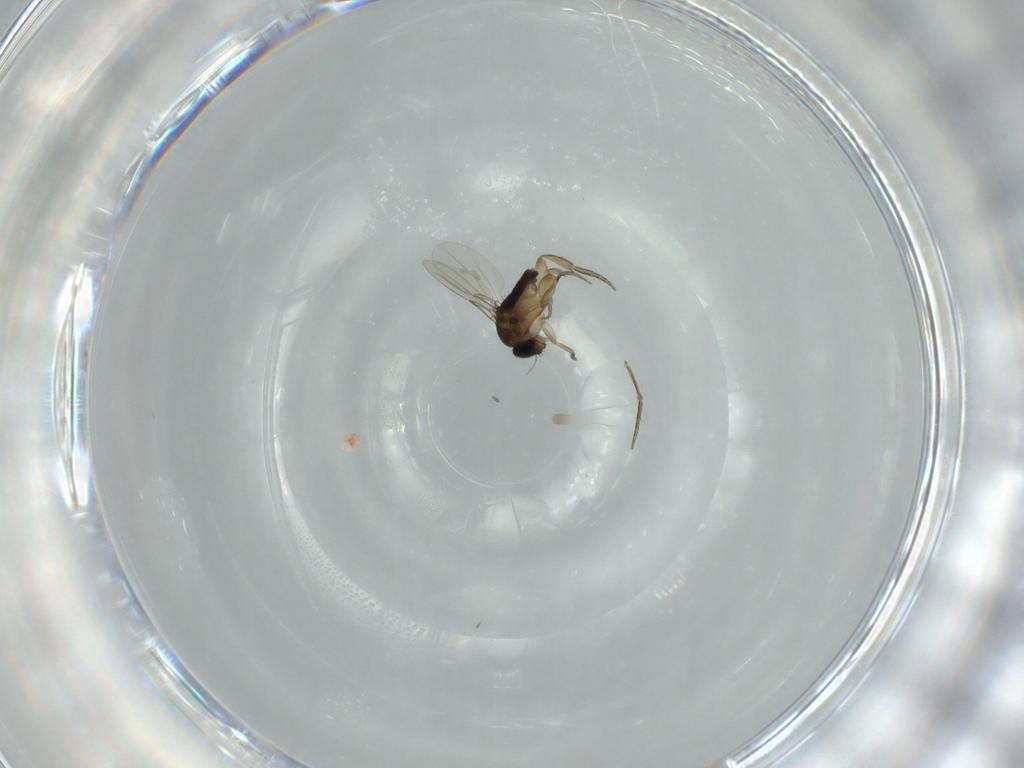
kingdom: Animalia
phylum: Arthropoda
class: Insecta
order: Diptera
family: Phoridae
